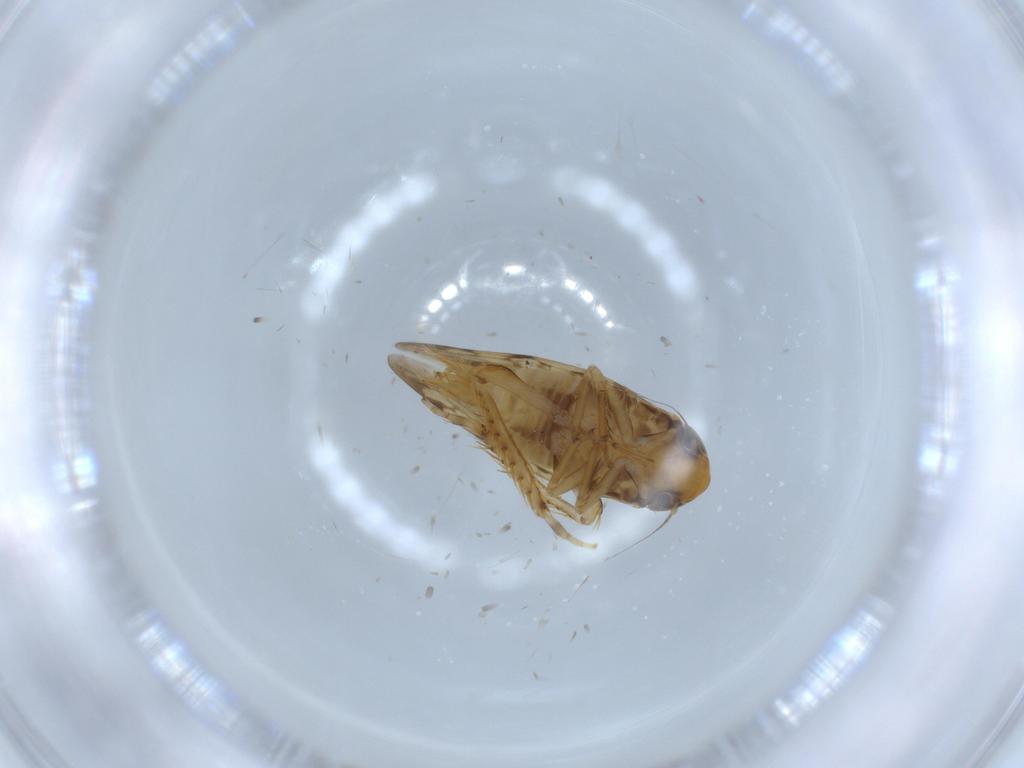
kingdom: Animalia
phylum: Arthropoda
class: Insecta
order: Hemiptera
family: Cicadellidae
